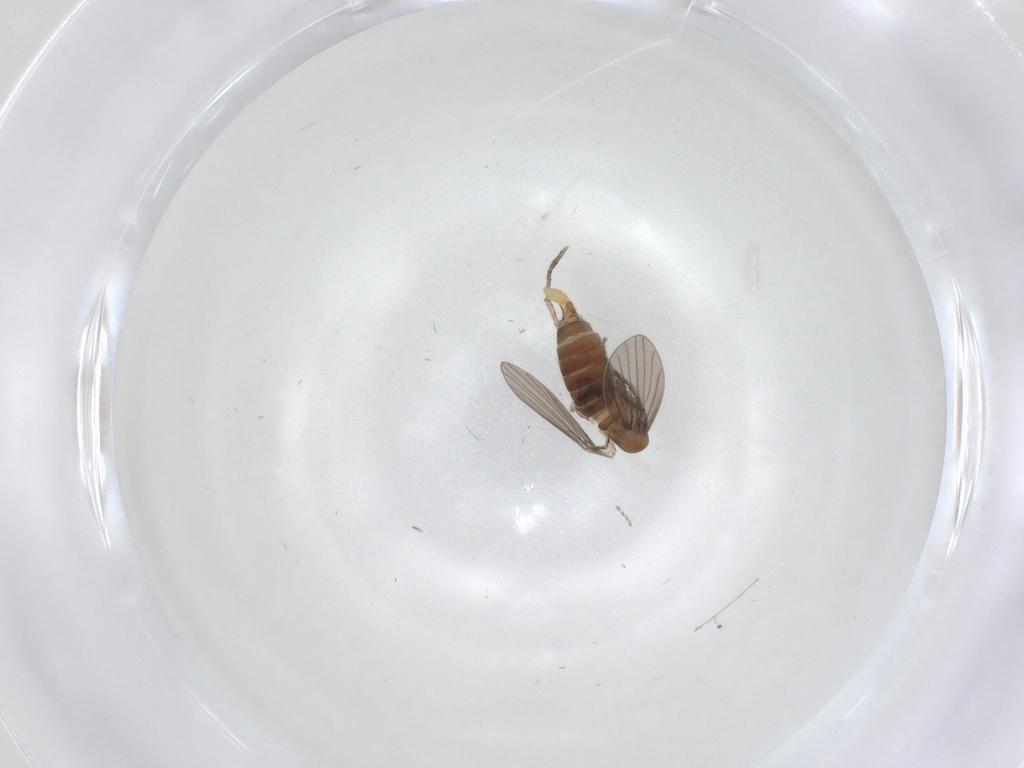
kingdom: Animalia
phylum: Arthropoda
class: Insecta
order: Diptera
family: Psychodidae
